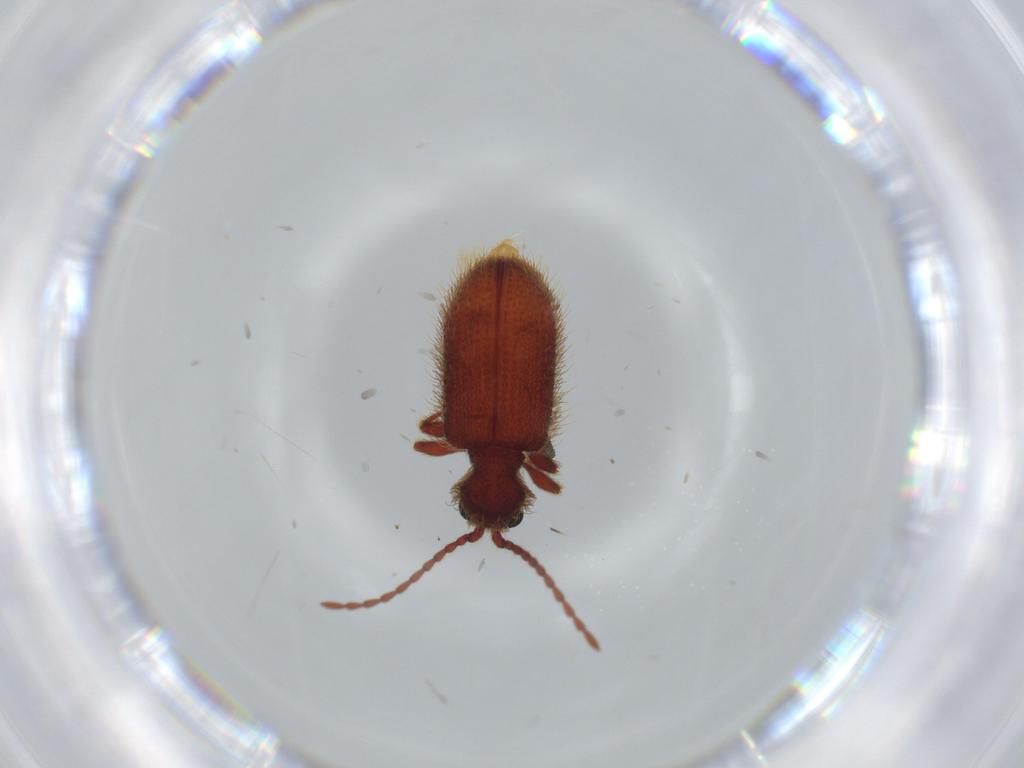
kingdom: Animalia
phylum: Arthropoda
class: Insecta
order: Coleoptera
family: Ptinidae
